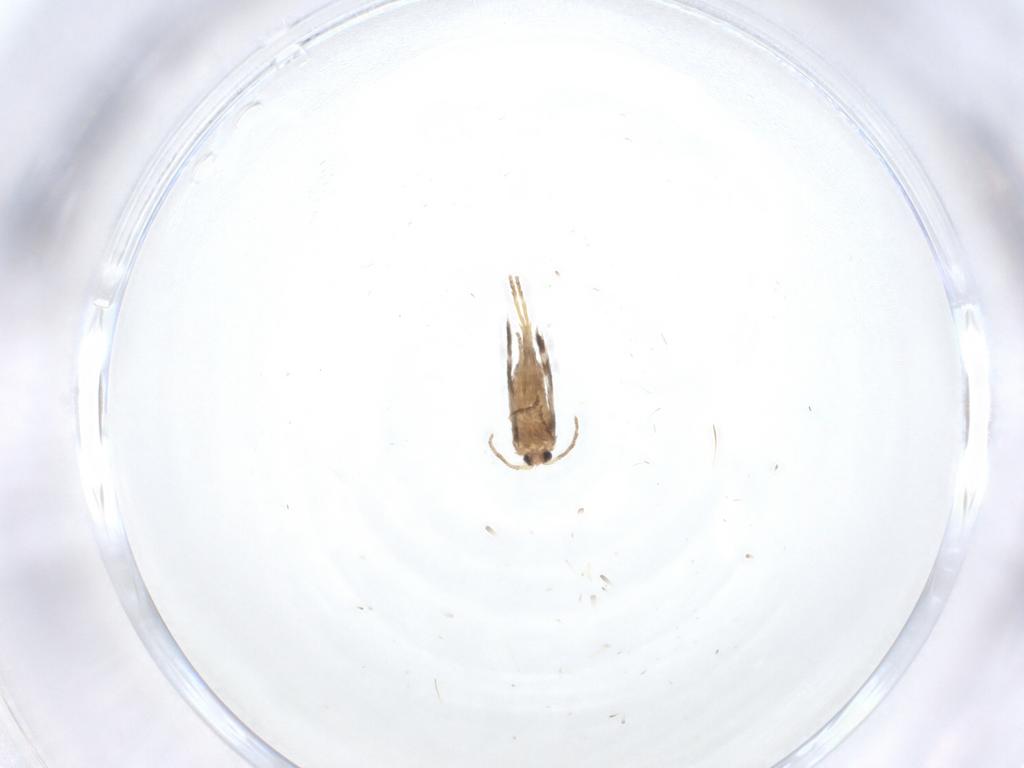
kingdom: Animalia
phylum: Arthropoda
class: Insecta
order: Lepidoptera
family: Nepticulidae
